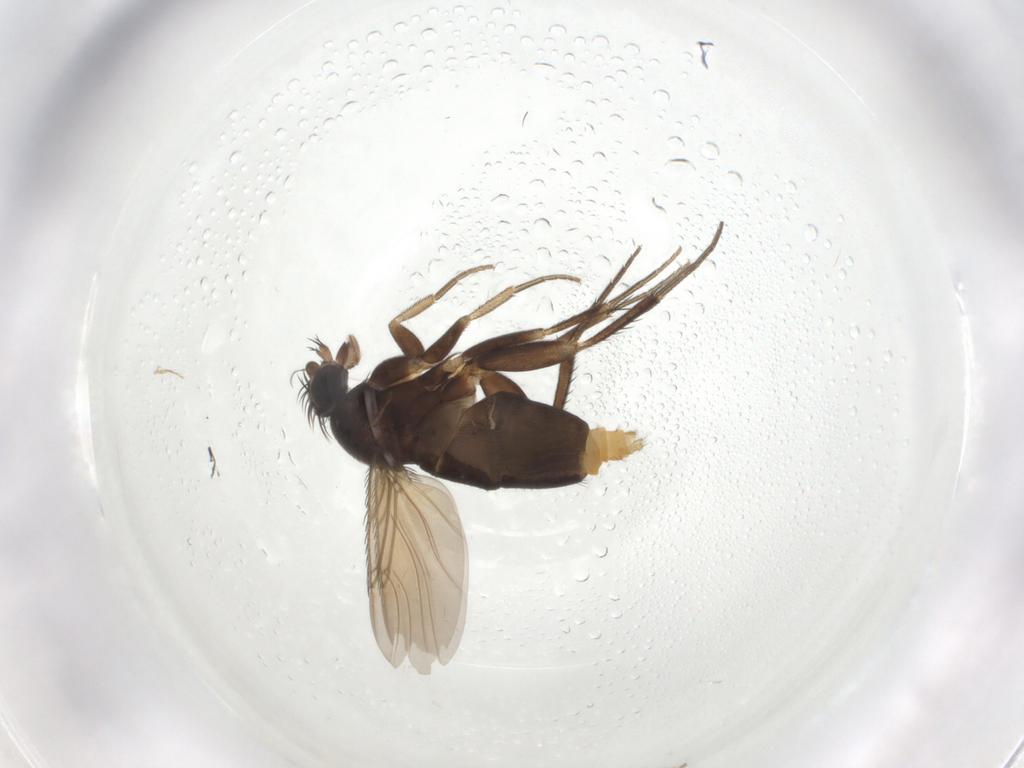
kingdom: Animalia
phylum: Arthropoda
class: Insecta
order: Diptera
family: Phoridae
